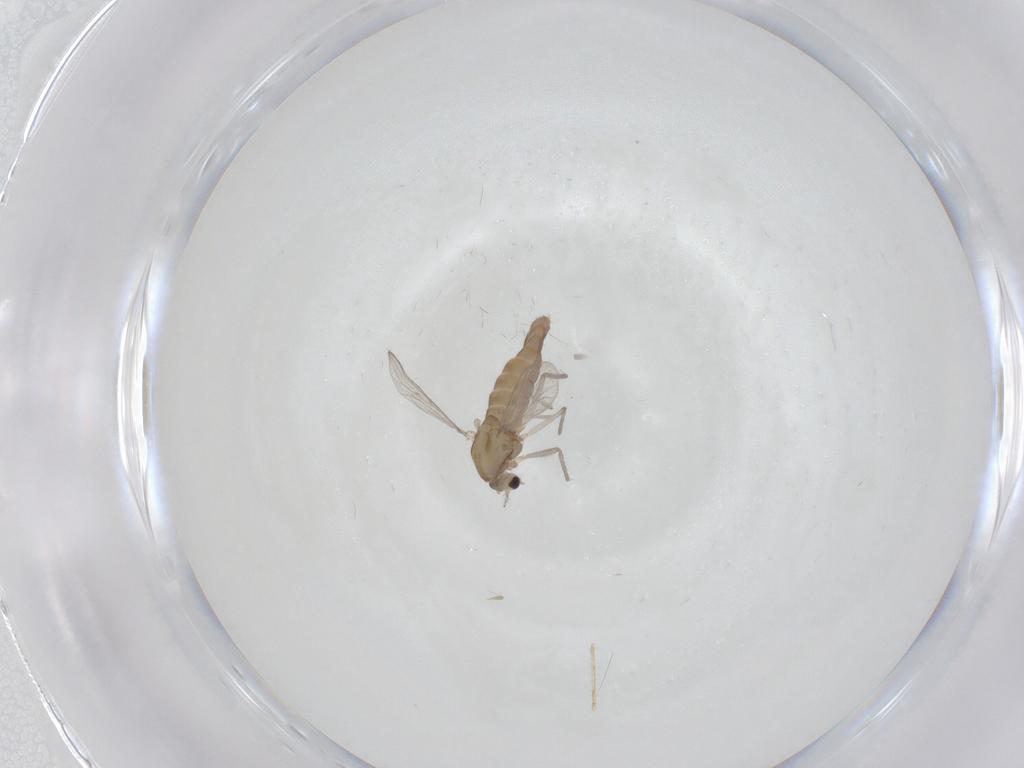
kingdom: Animalia
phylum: Arthropoda
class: Insecta
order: Diptera
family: Chironomidae
